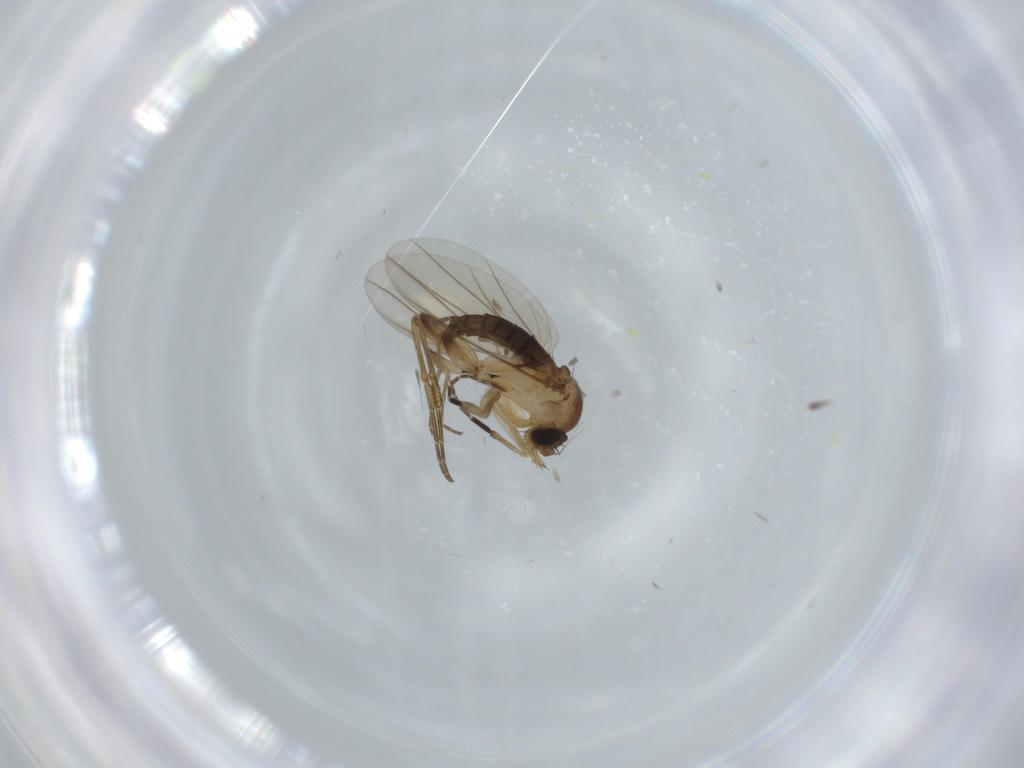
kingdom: Animalia
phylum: Arthropoda
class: Insecta
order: Diptera
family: Phoridae
